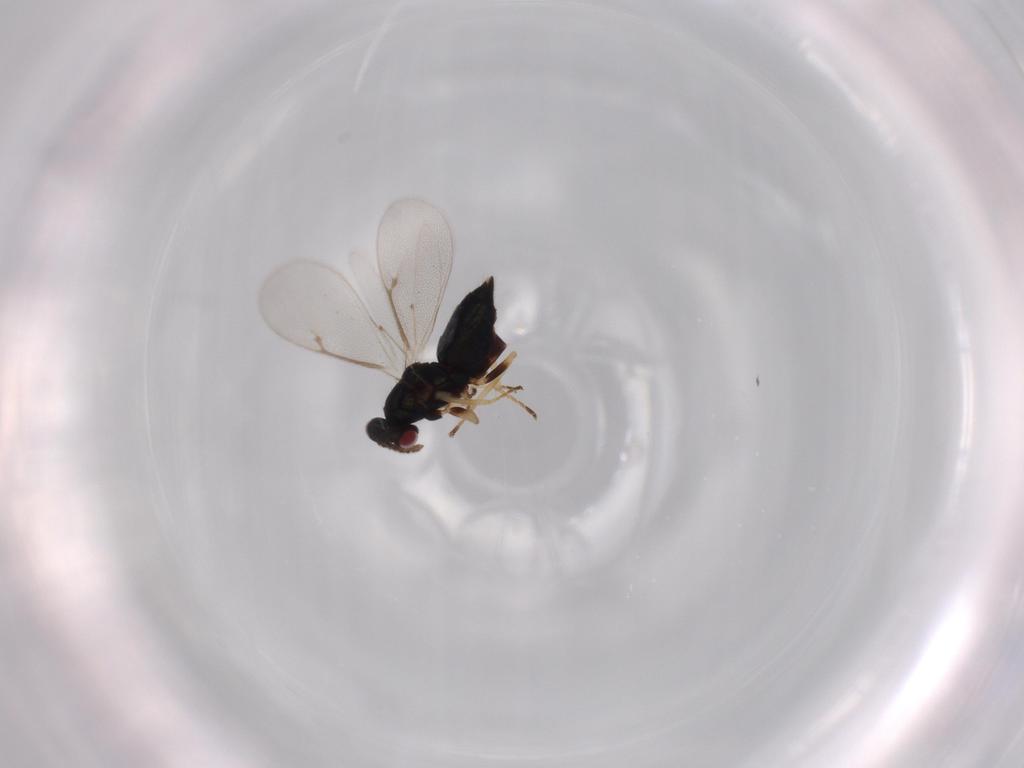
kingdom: Animalia
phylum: Arthropoda
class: Insecta
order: Hymenoptera
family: Eulophidae
